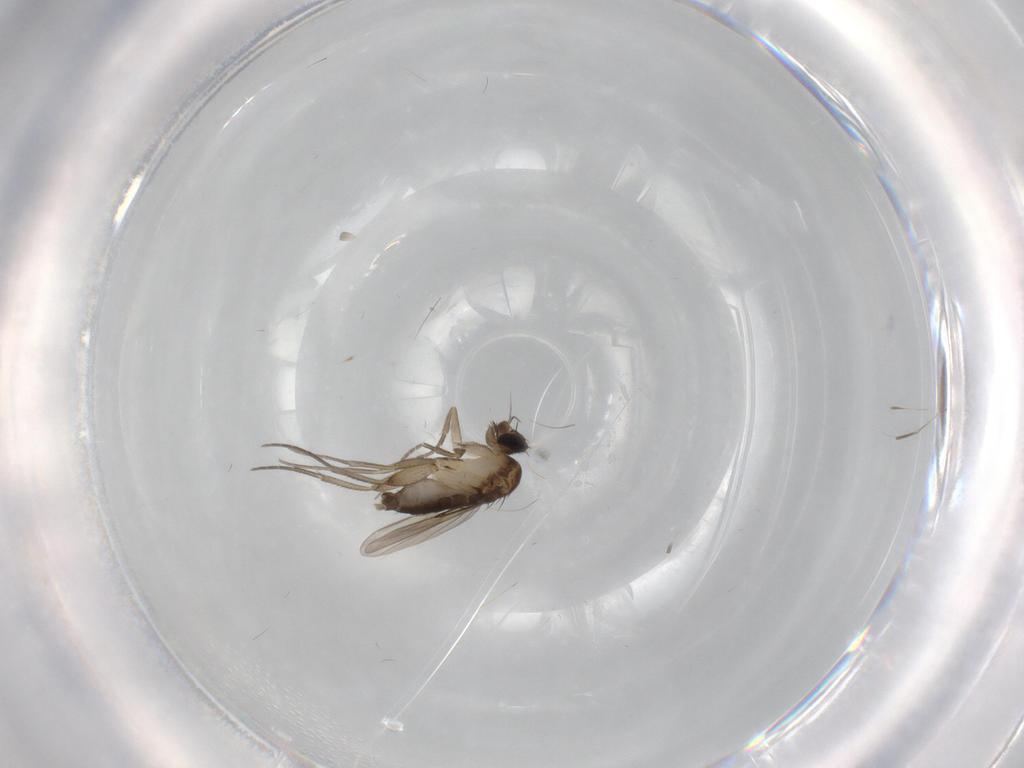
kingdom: Animalia
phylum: Arthropoda
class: Insecta
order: Diptera
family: Phoridae
